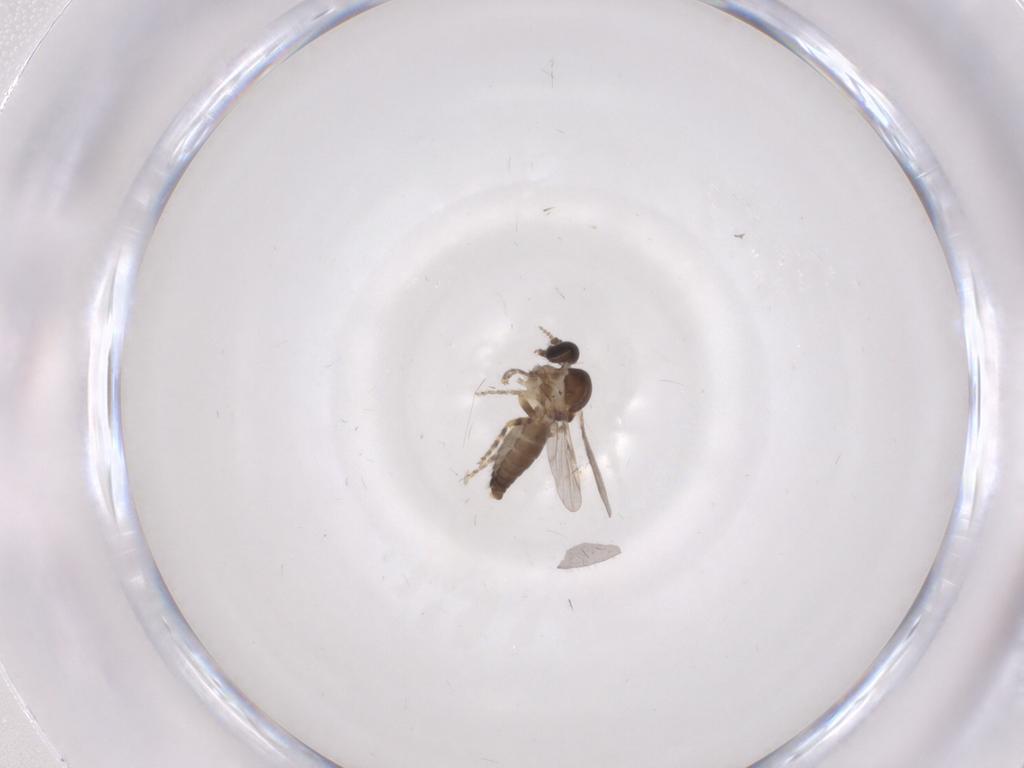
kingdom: Animalia
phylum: Arthropoda
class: Insecta
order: Diptera
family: Ceratopogonidae
